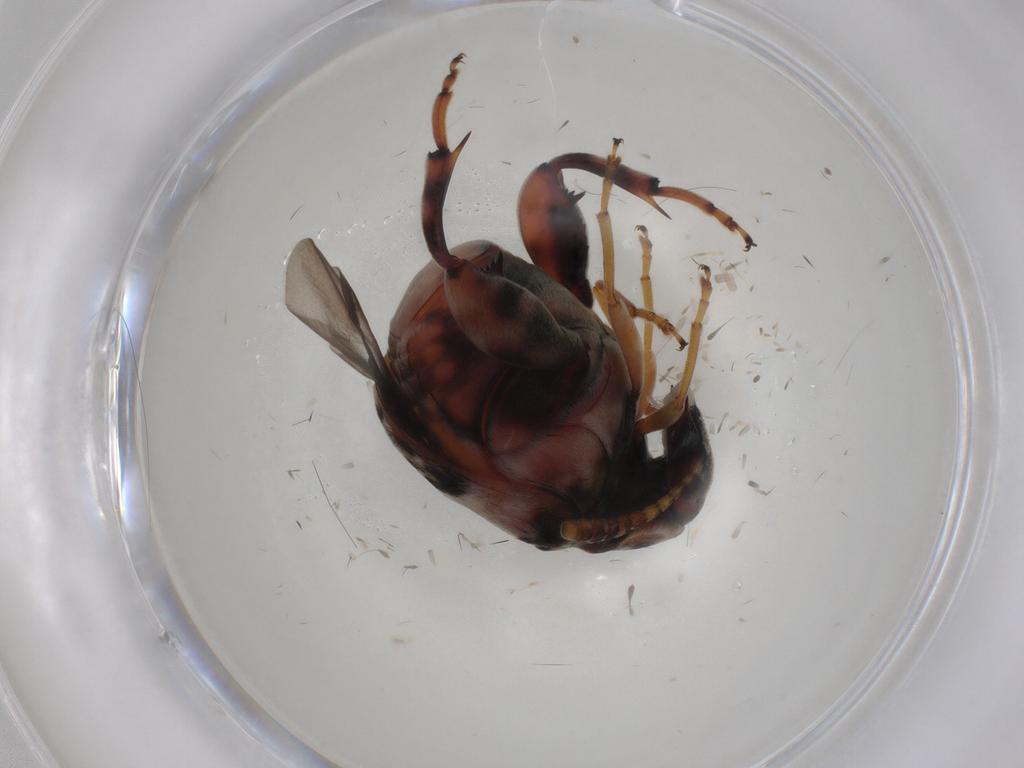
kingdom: Animalia
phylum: Arthropoda
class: Insecta
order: Coleoptera
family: Chrysomelidae
